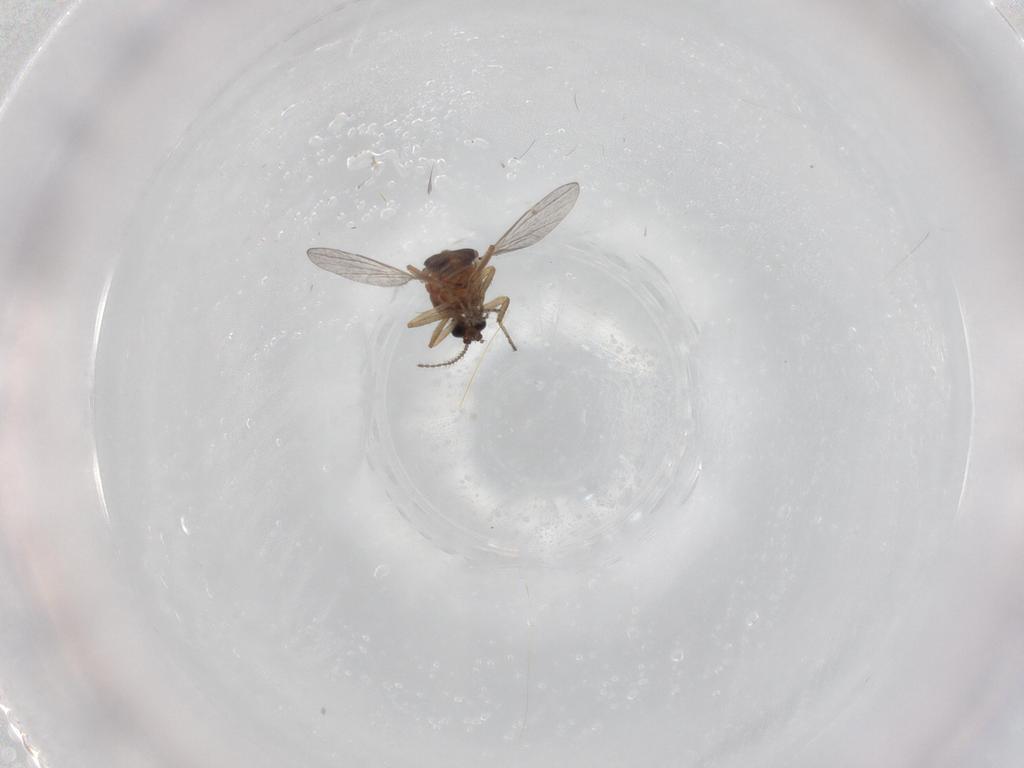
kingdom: Animalia
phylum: Arthropoda
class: Insecta
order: Diptera
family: Ceratopogonidae
